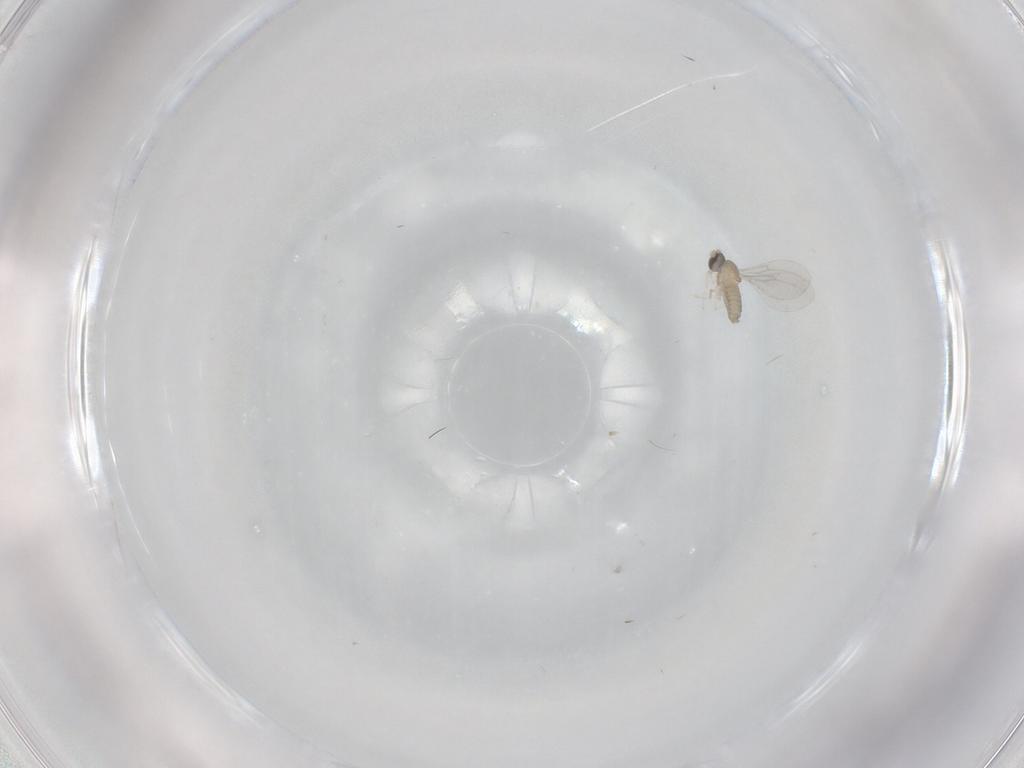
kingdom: Animalia
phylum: Arthropoda
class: Insecta
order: Diptera
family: Cecidomyiidae
